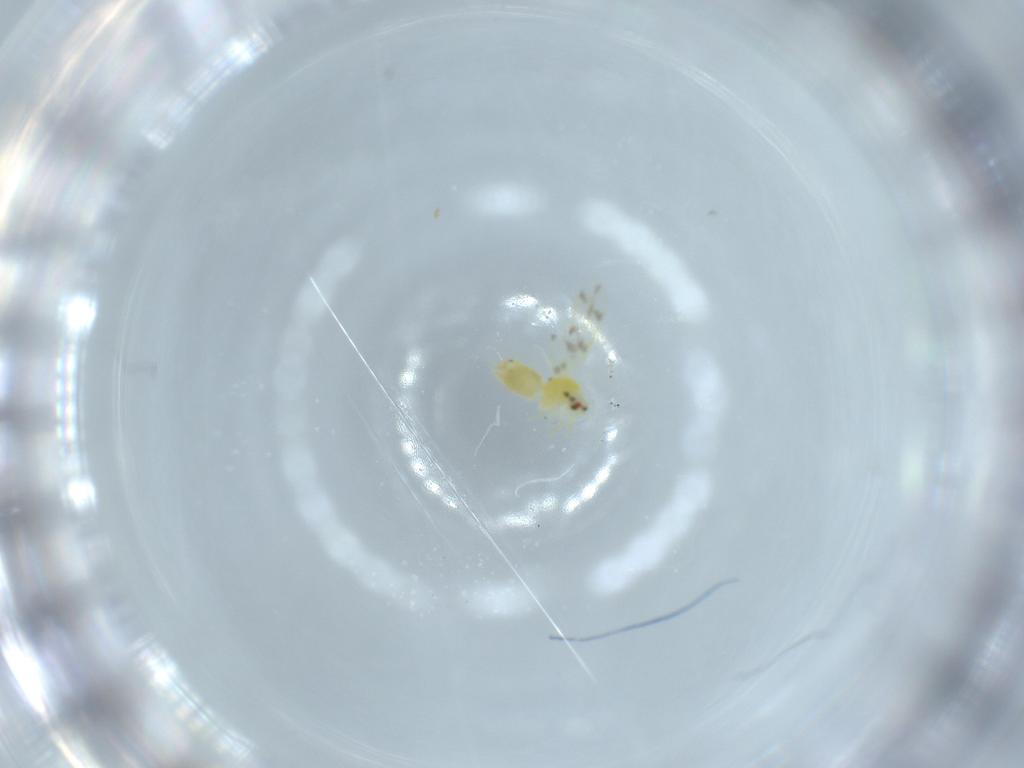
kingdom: Animalia
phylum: Arthropoda
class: Insecta
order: Hemiptera
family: Aleyrodidae
